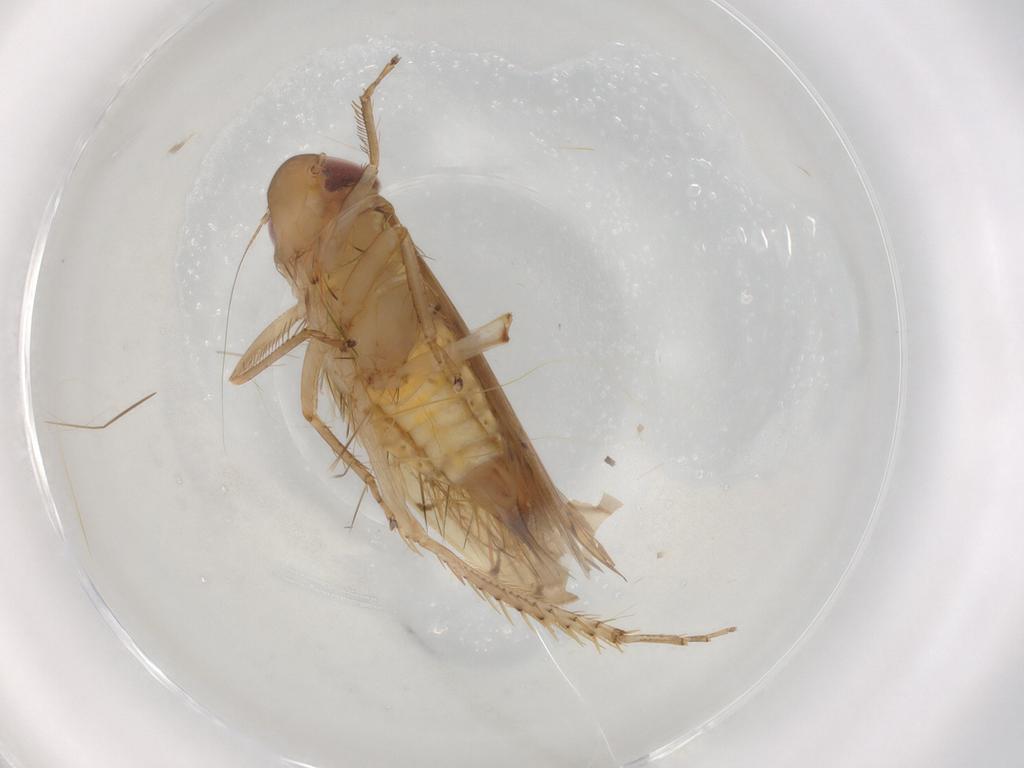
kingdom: Animalia
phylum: Arthropoda
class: Insecta
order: Hemiptera
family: Cicadellidae
